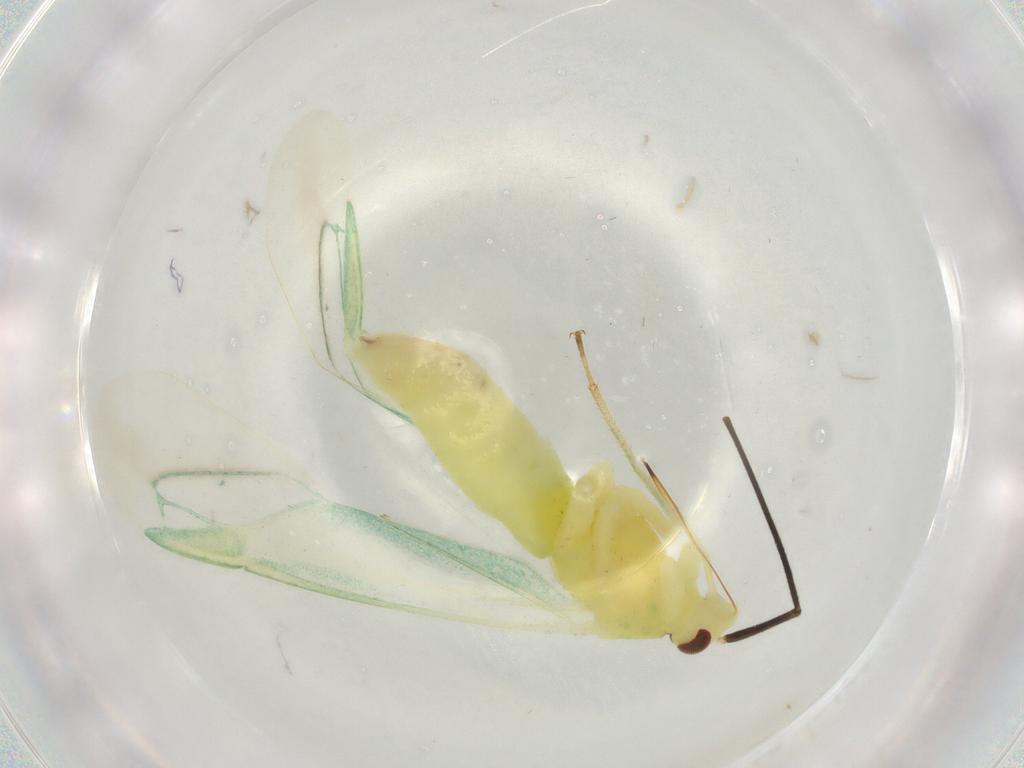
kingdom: Animalia
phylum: Arthropoda
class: Insecta
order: Hemiptera
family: Miridae
